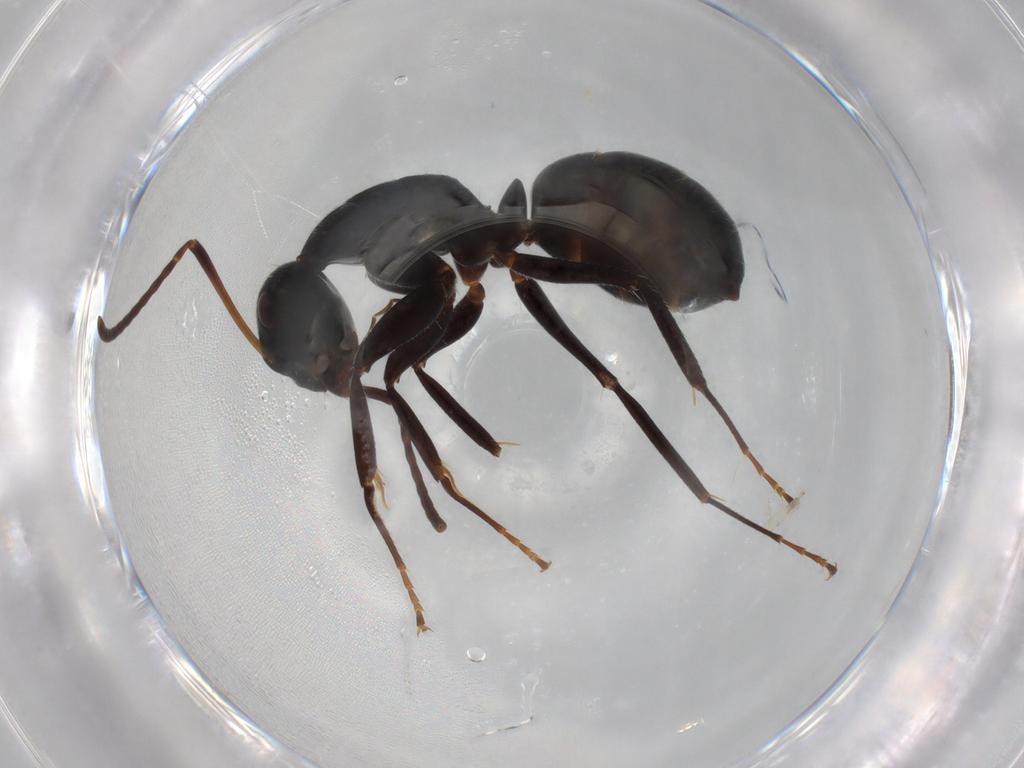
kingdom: Animalia
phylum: Arthropoda
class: Insecta
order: Hymenoptera
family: Formicidae
